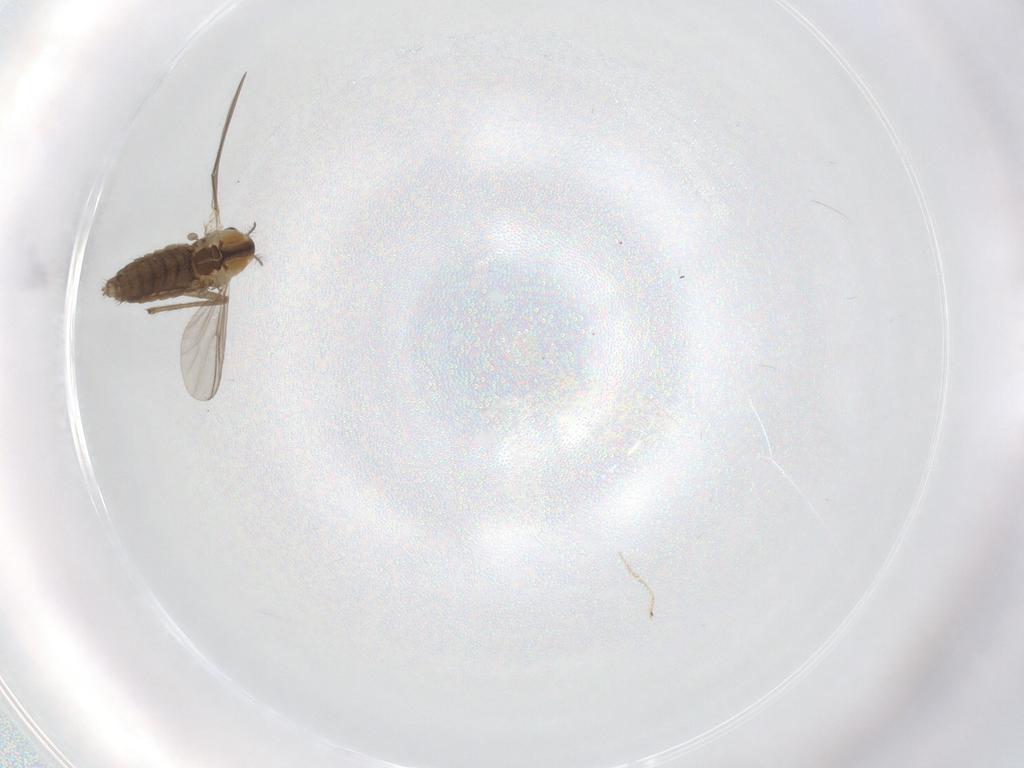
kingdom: Animalia
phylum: Arthropoda
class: Insecta
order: Diptera
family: Chironomidae
